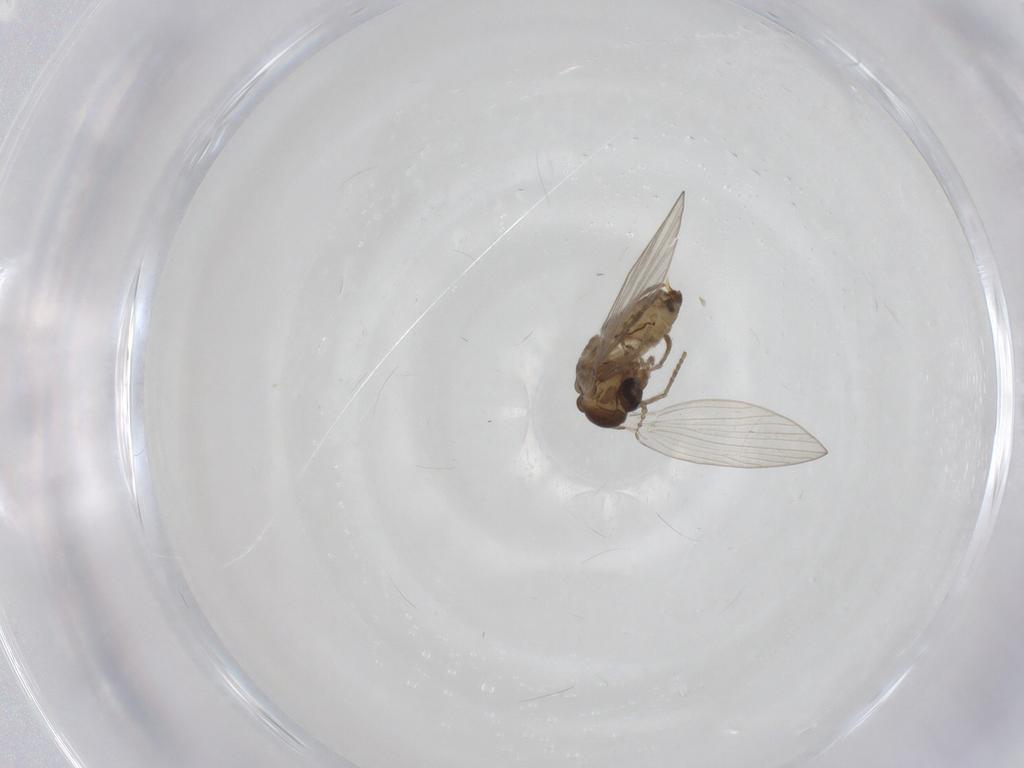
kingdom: Animalia
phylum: Arthropoda
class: Insecta
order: Diptera
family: Psychodidae
